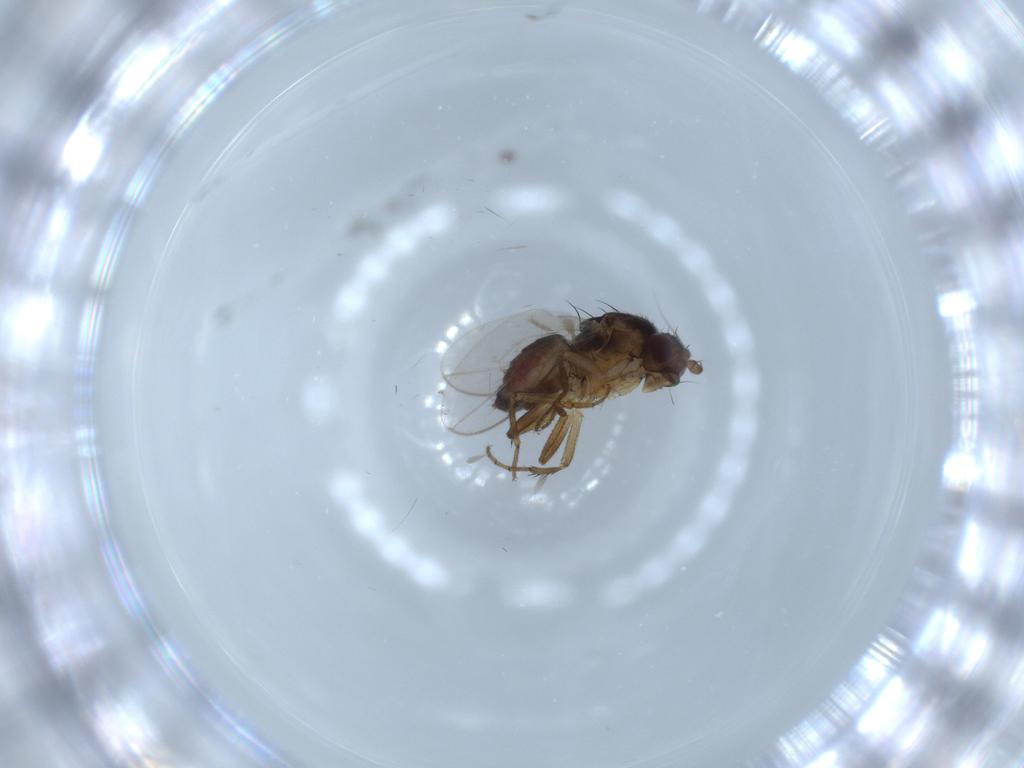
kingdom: Animalia
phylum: Arthropoda
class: Insecta
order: Diptera
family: Sphaeroceridae
